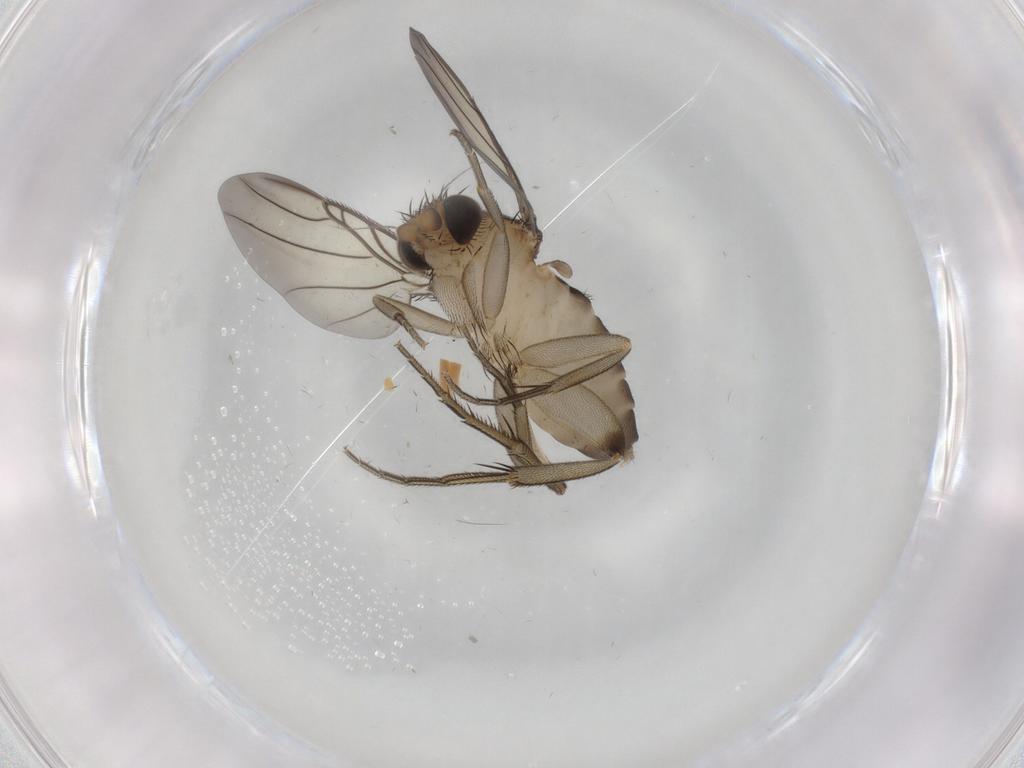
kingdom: Animalia
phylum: Arthropoda
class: Insecta
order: Diptera
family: Phoridae
